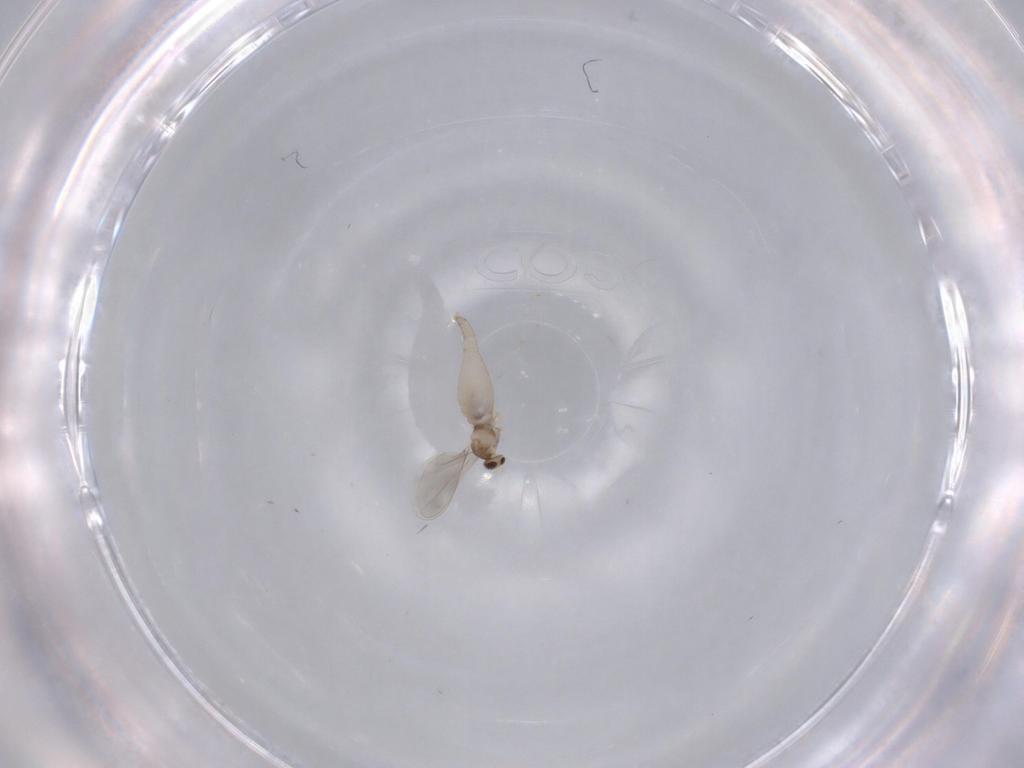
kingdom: Animalia
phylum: Arthropoda
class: Insecta
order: Diptera
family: Cecidomyiidae
